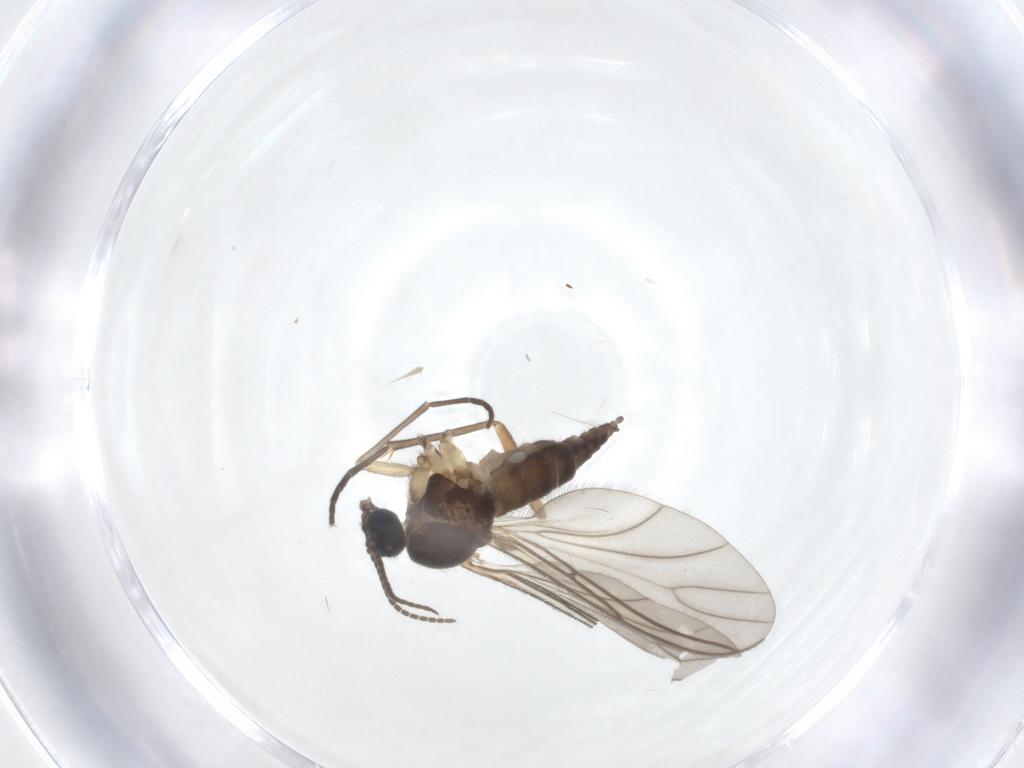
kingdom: Animalia
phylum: Arthropoda
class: Insecta
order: Diptera
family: Sciaridae
